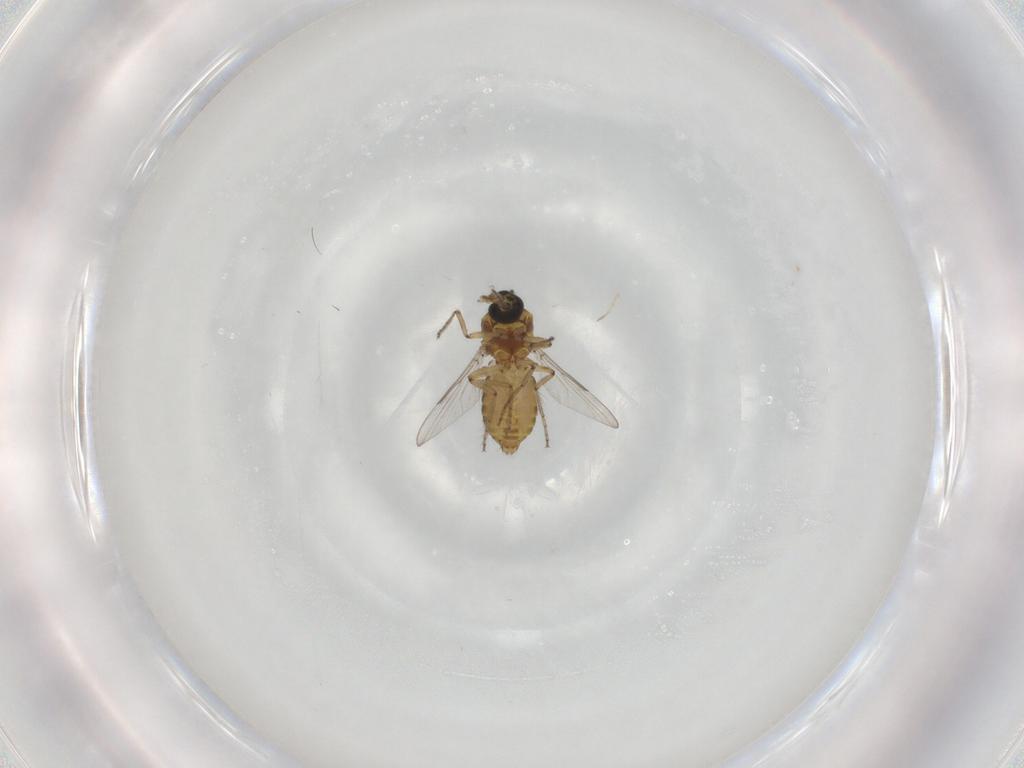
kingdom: Animalia
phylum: Arthropoda
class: Insecta
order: Diptera
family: Ceratopogonidae
